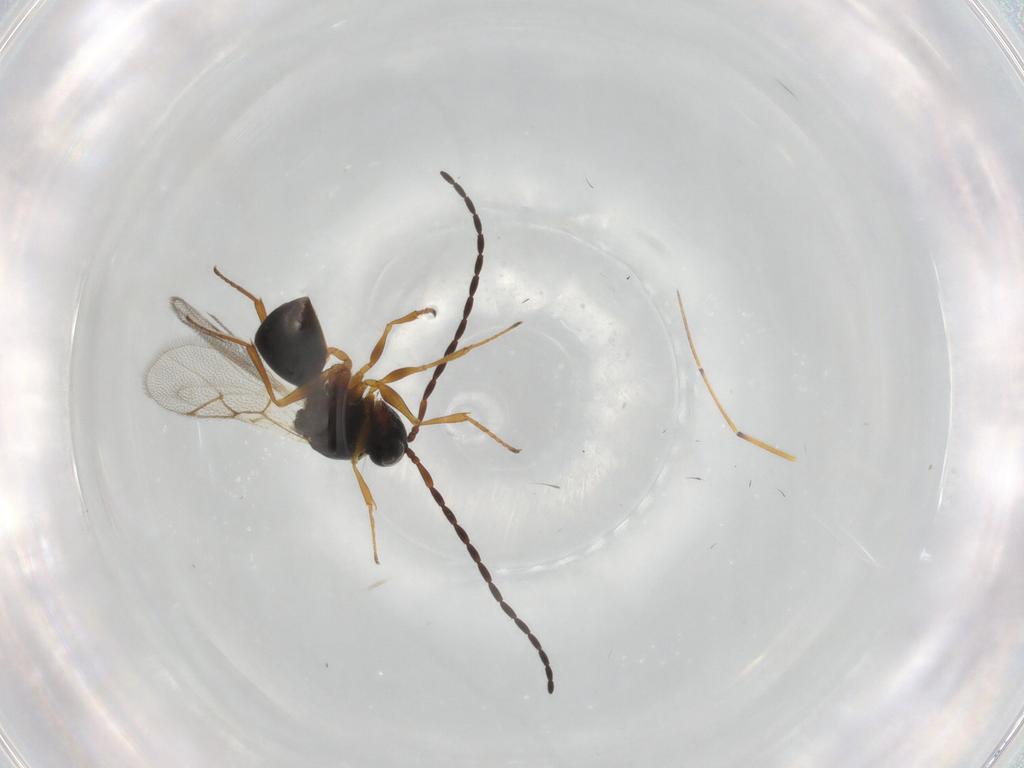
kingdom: Animalia
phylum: Arthropoda
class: Insecta
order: Hymenoptera
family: Figitidae
